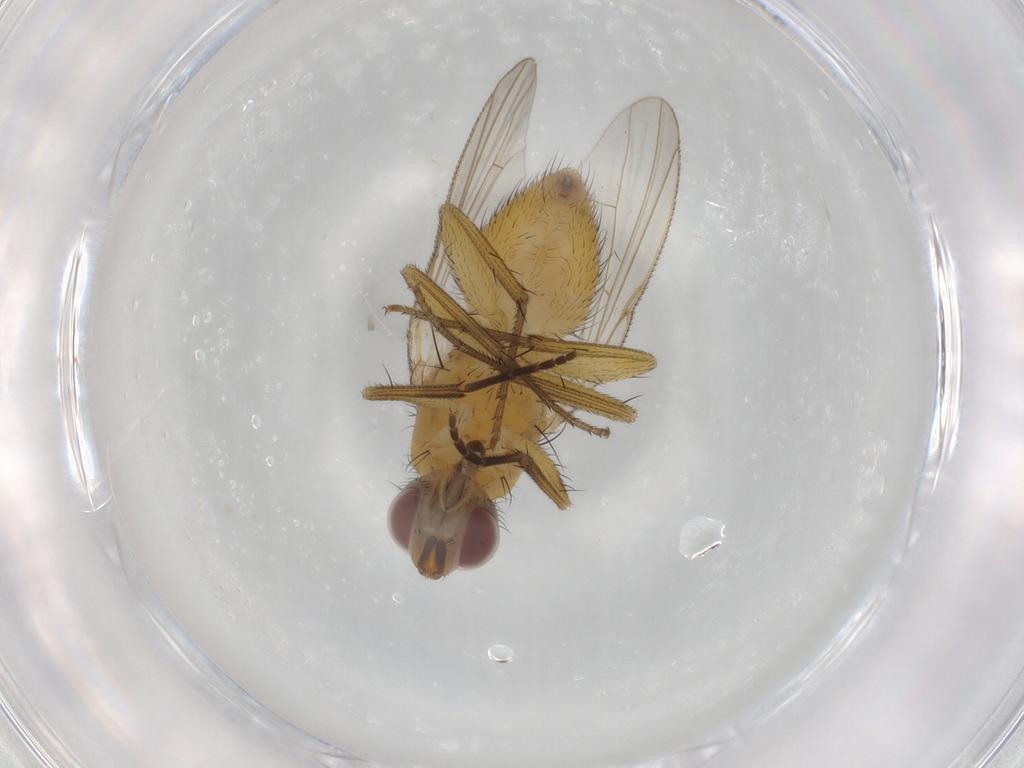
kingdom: Animalia
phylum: Arthropoda
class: Insecta
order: Diptera
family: Muscidae
